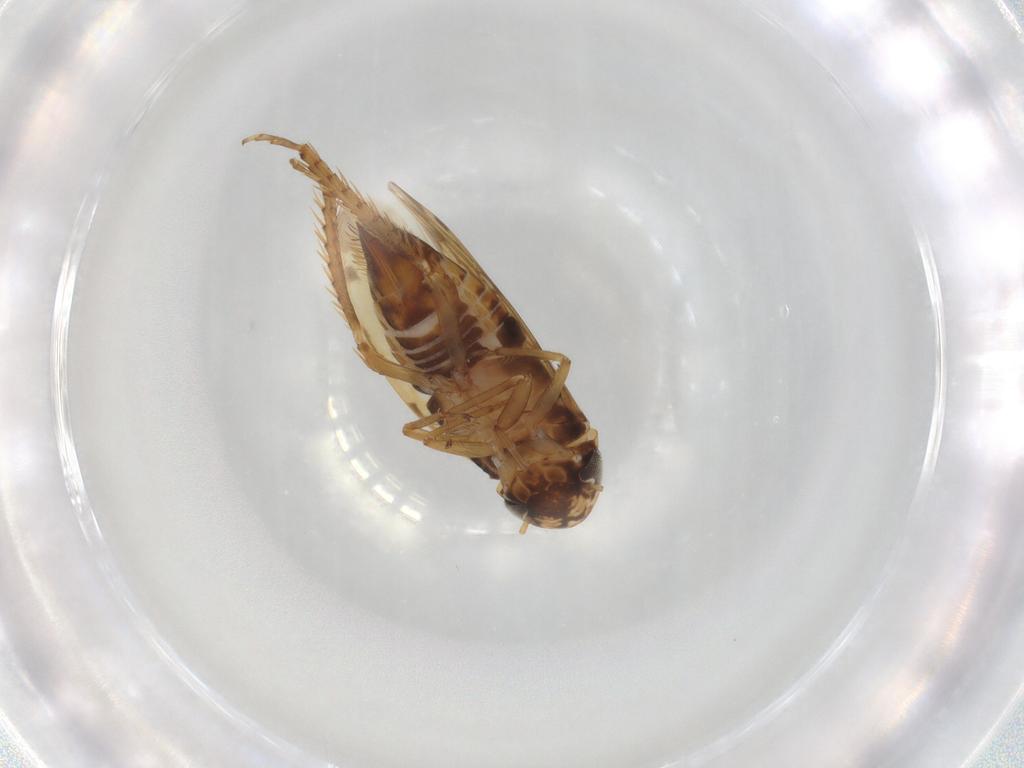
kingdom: Animalia
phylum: Arthropoda
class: Insecta
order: Hemiptera
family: Cicadellidae
